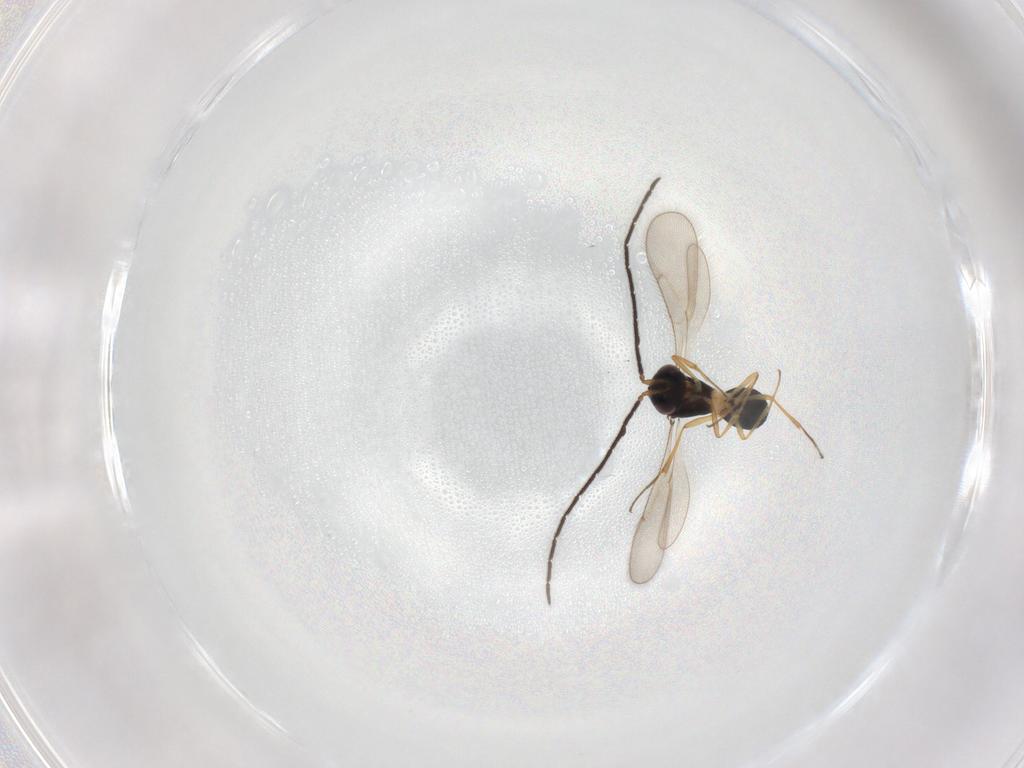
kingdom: Animalia
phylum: Arthropoda
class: Insecta
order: Hymenoptera
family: Scelionidae
